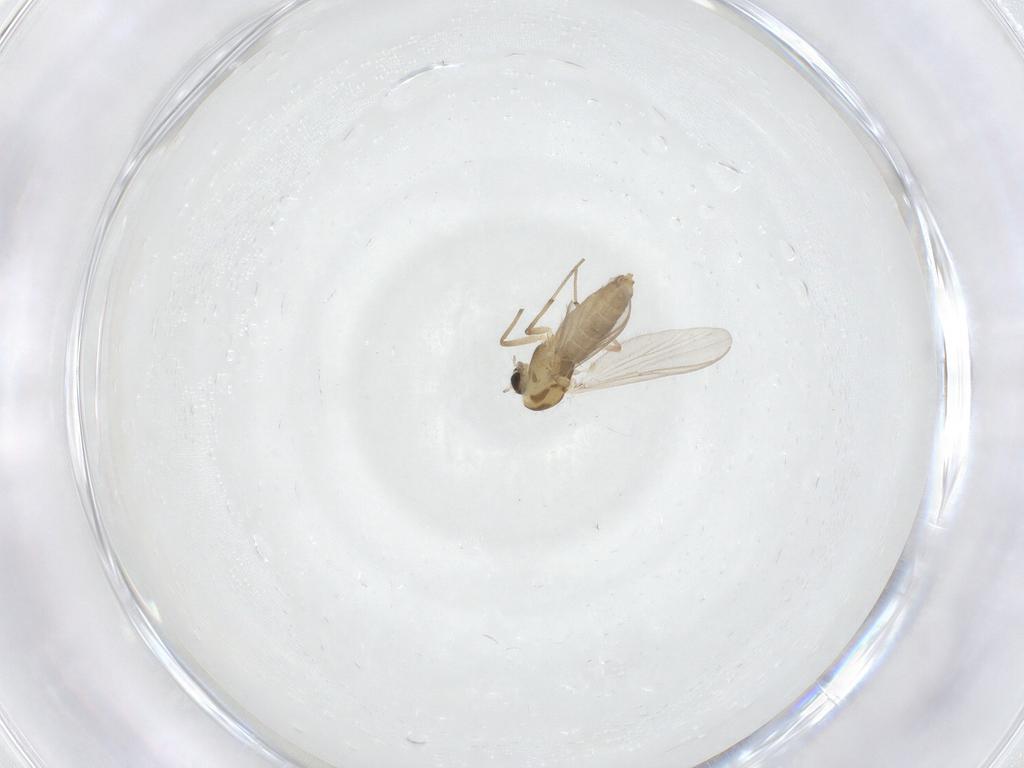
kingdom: Animalia
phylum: Arthropoda
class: Insecta
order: Diptera
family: Chironomidae
